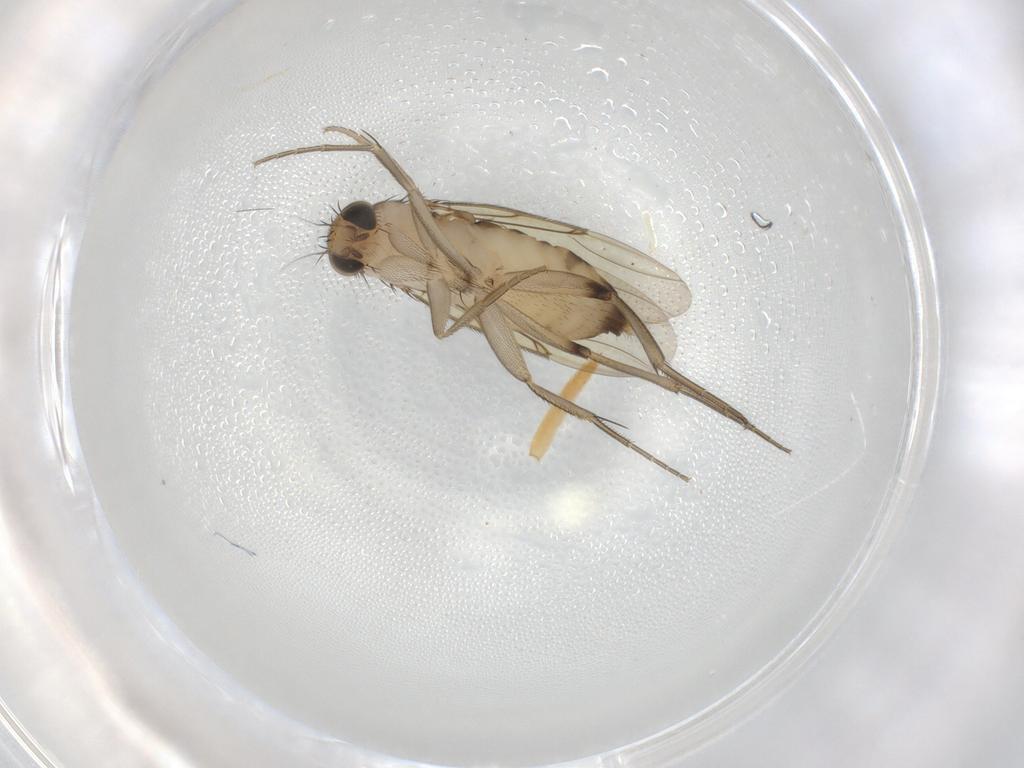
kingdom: Animalia
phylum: Arthropoda
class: Insecta
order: Diptera
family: Phoridae
